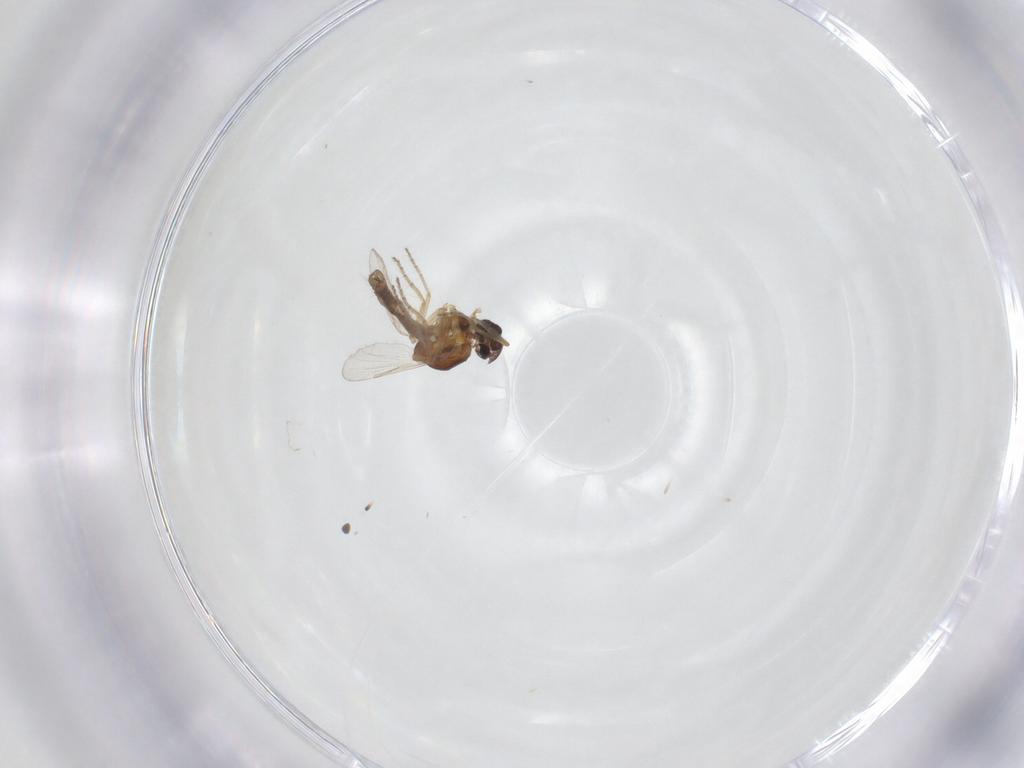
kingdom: Animalia
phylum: Arthropoda
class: Insecta
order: Diptera
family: Ceratopogonidae
